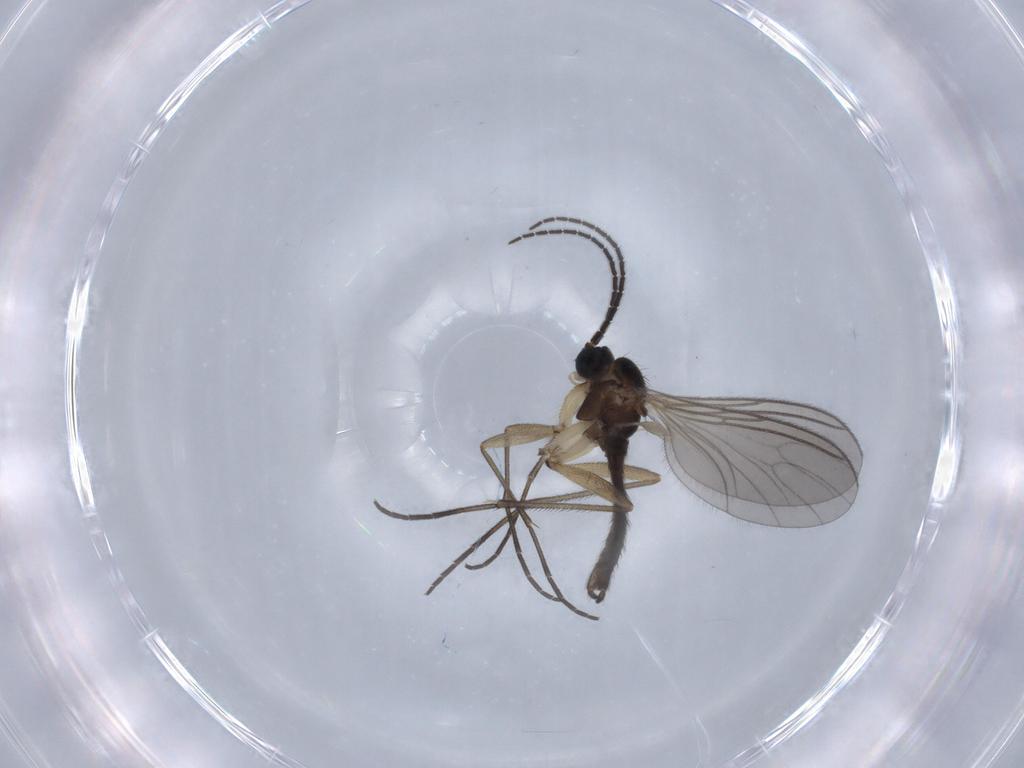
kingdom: Animalia
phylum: Arthropoda
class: Insecta
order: Diptera
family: Sciaridae
